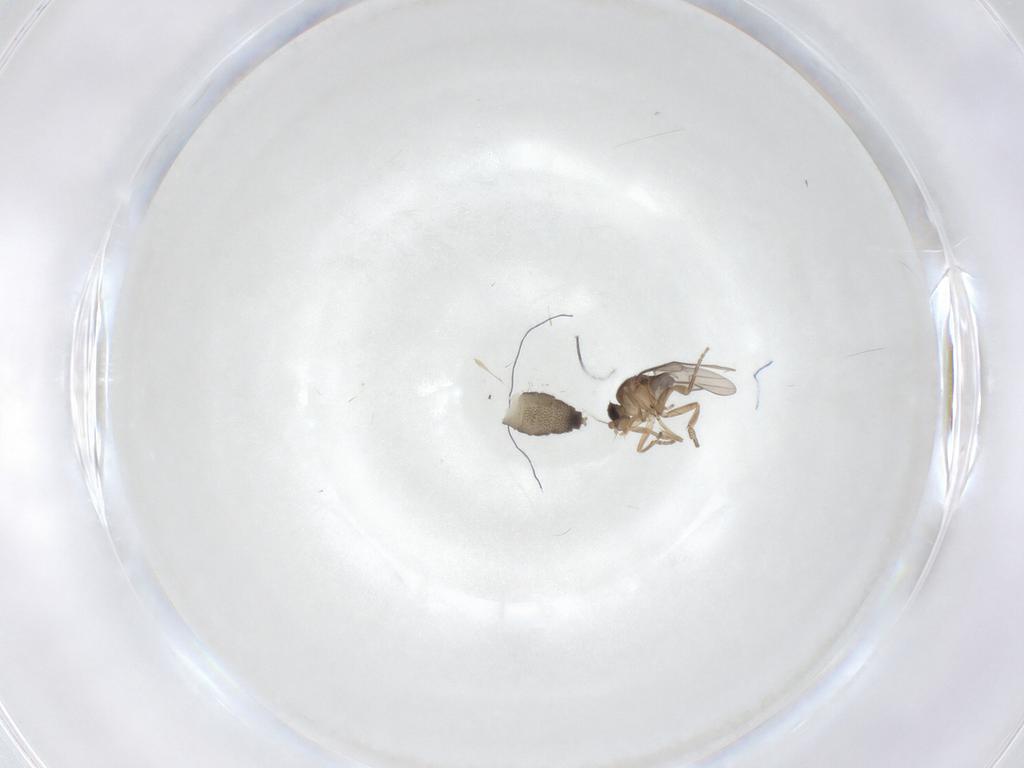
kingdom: Animalia
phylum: Arthropoda
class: Insecta
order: Diptera
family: Phoridae
